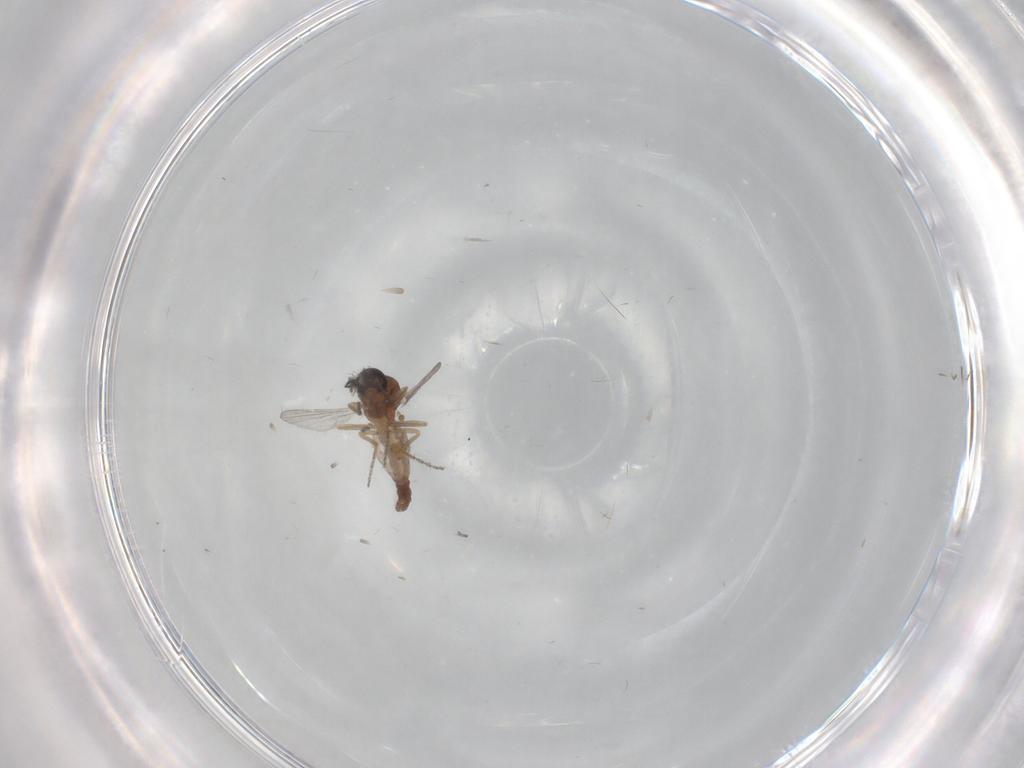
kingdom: Animalia
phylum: Arthropoda
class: Insecta
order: Diptera
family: Ceratopogonidae
